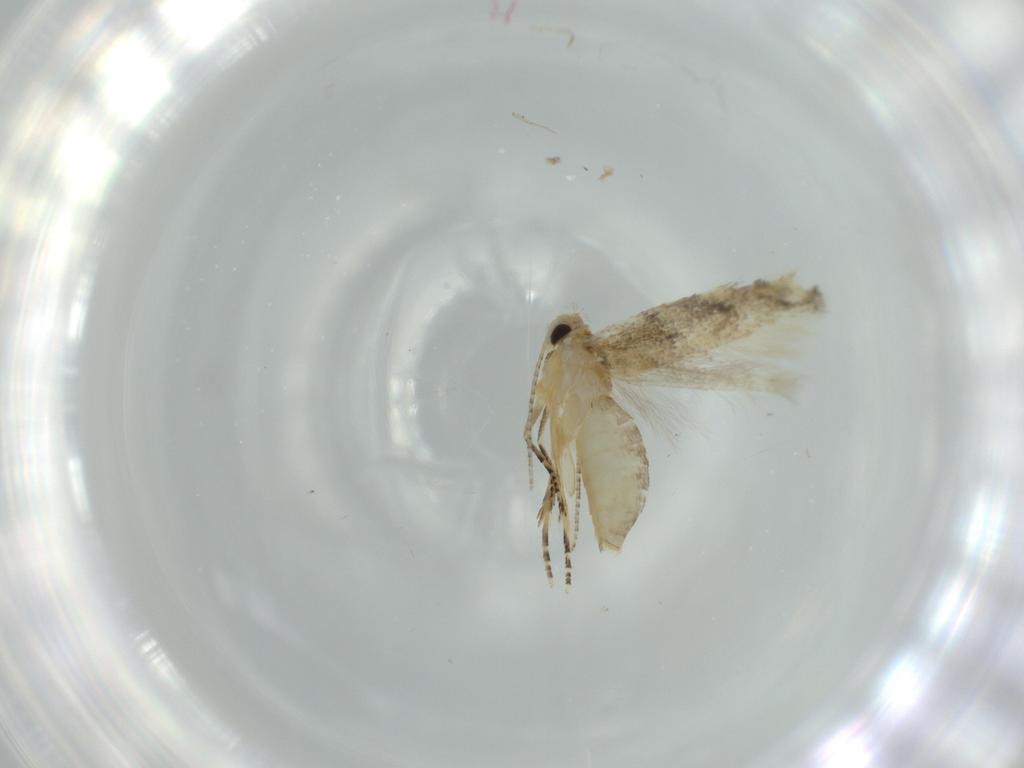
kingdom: Animalia
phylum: Arthropoda
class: Insecta
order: Lepidoptera
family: Bucculatricidae
